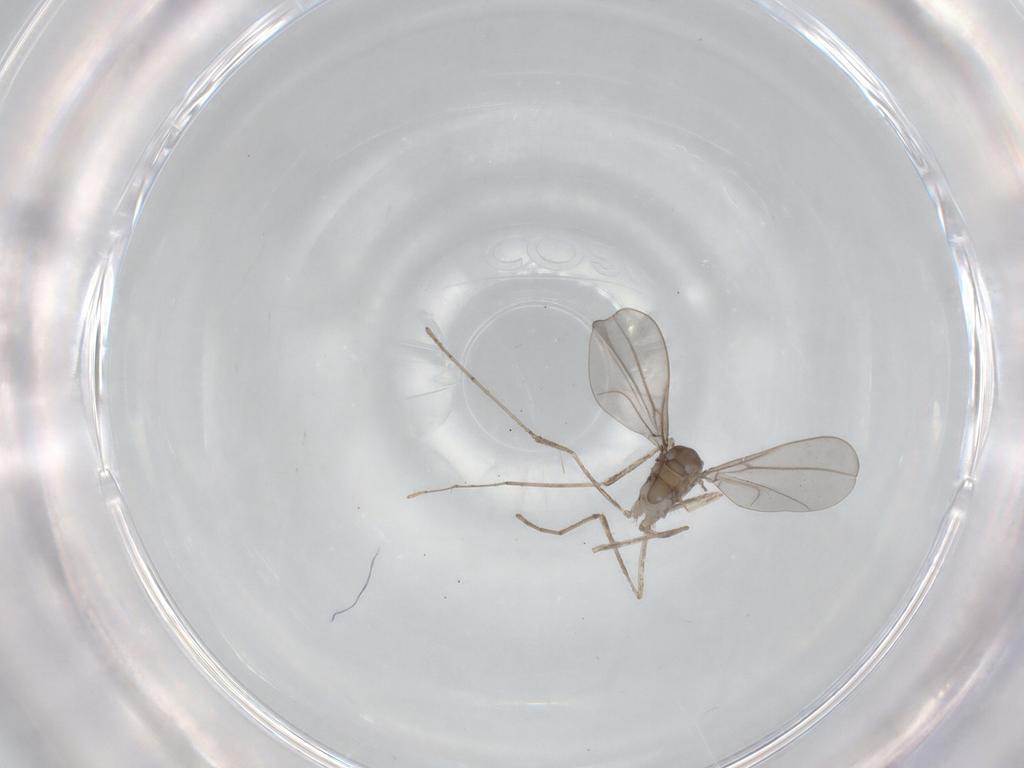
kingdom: Animalia
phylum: Arthropoda
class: Insecta
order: Diptera
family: Cecidomyiidae
